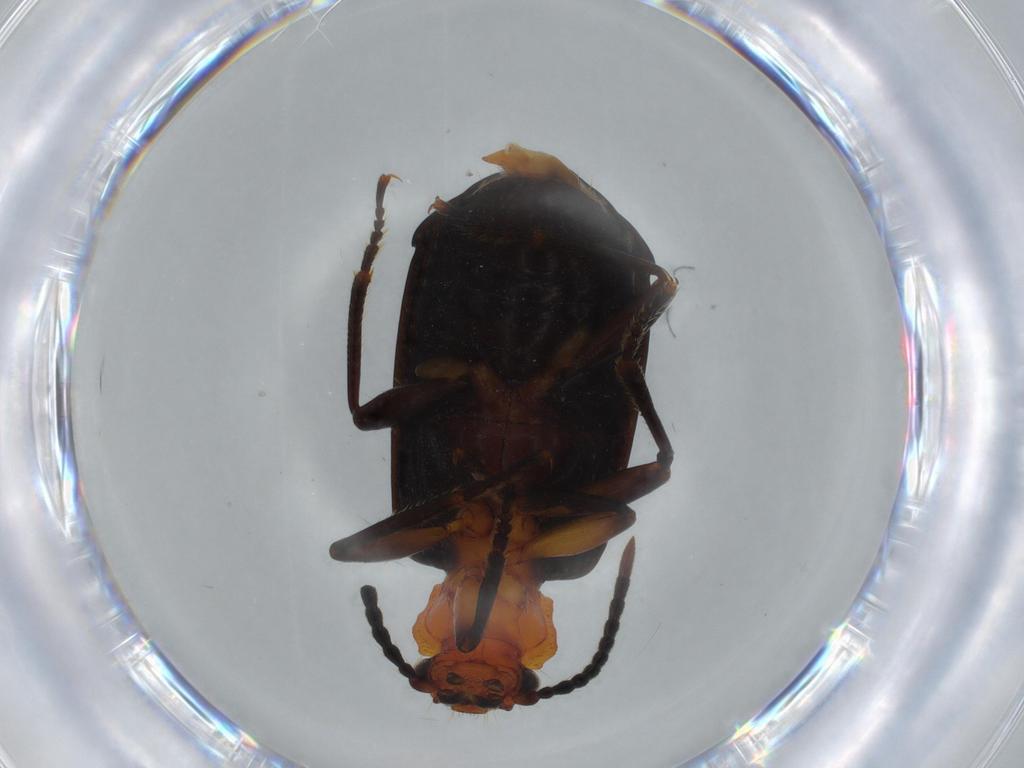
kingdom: Animalia
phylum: Arthropoda
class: Insecta
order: Coleoptera
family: Carabidae
